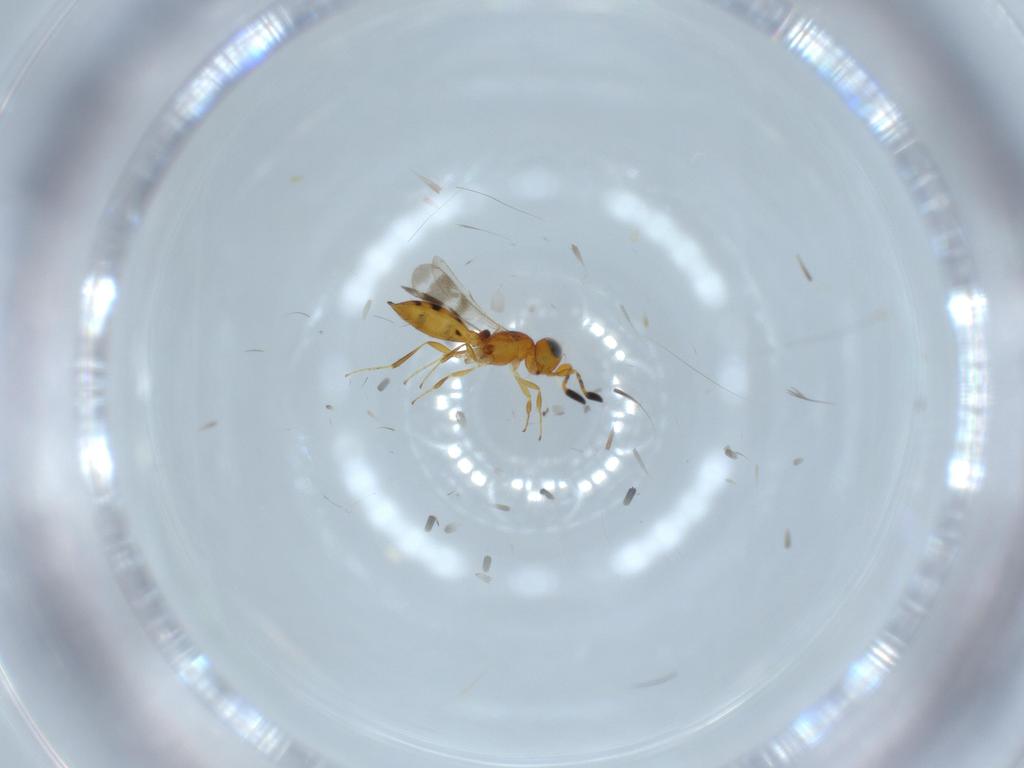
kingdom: Animalia
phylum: Arthropoda
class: Insecta
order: Hymenoptera
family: Scelionidae
